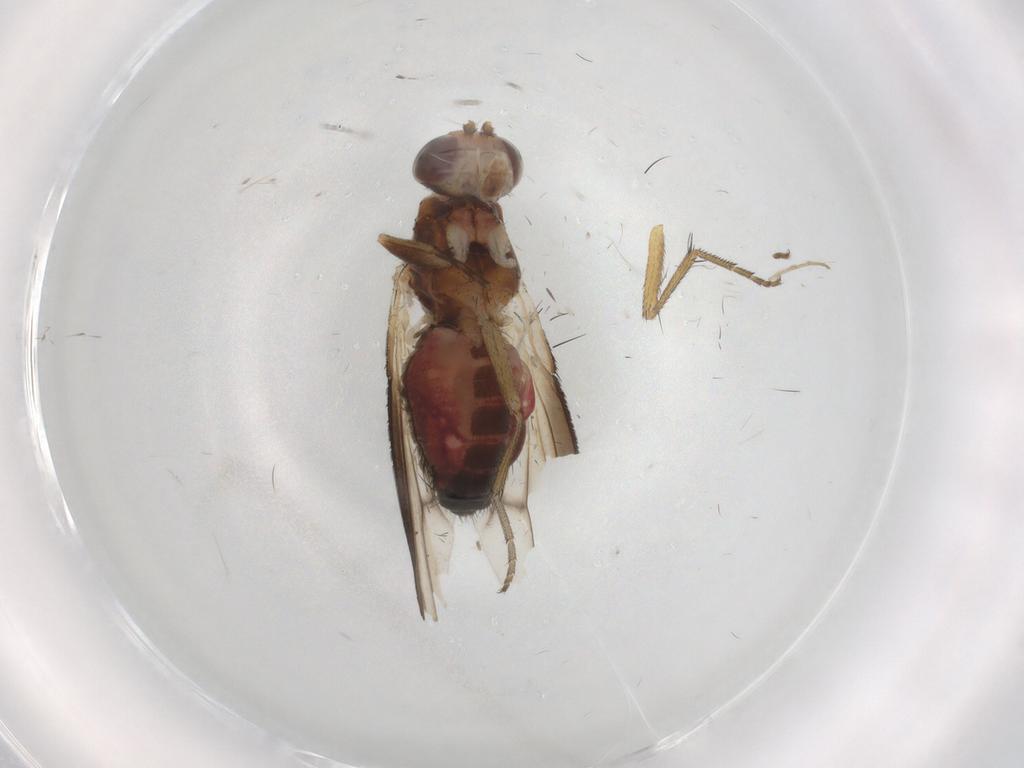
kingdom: Animalia
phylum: Arthropoda
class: Insecta
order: Diptera
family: Heleomyzidae
